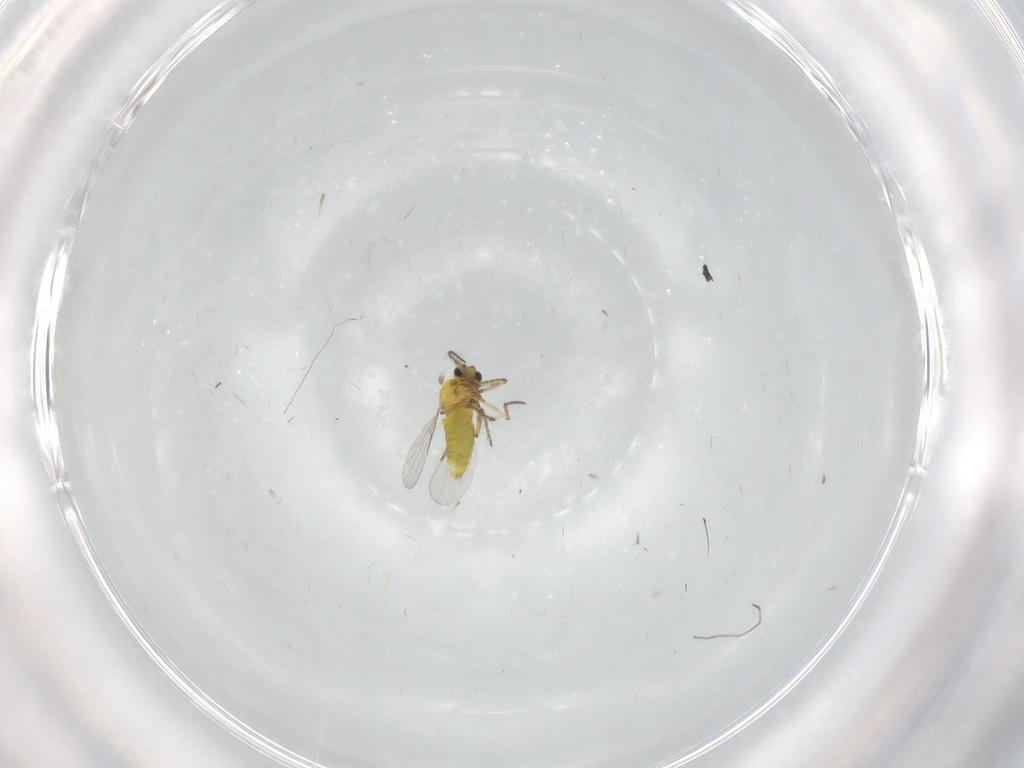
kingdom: Animalia
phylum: Arthropoda
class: Insecta
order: Diptera
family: Ceratopogonidae
